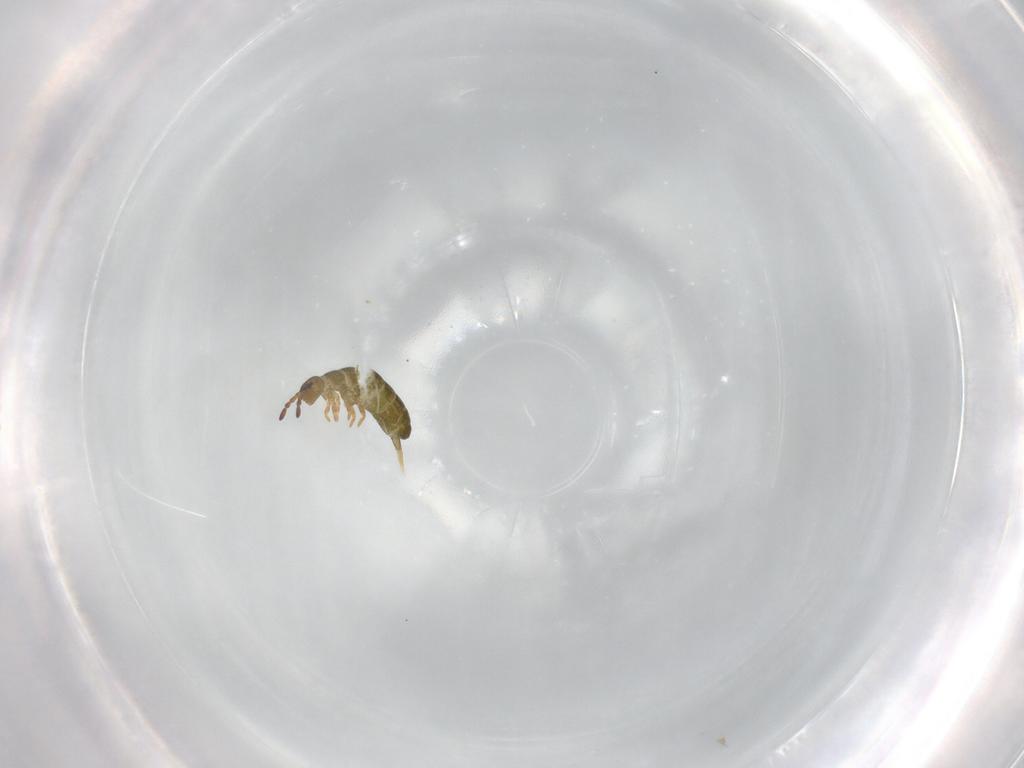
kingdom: Animalia
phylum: Arthropoda
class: Collembola
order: Entomobryomorpha
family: Isotomidae
